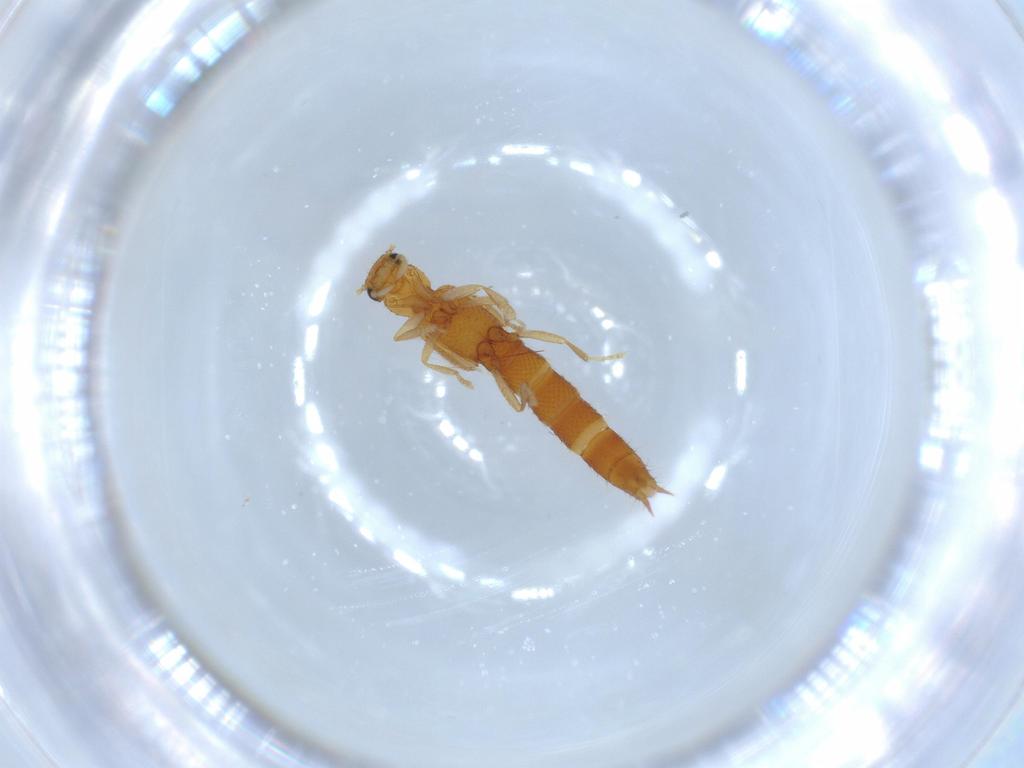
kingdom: Animalia
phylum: Arthropoda
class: Insecta
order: Coleoptera
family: Staphylinidae
